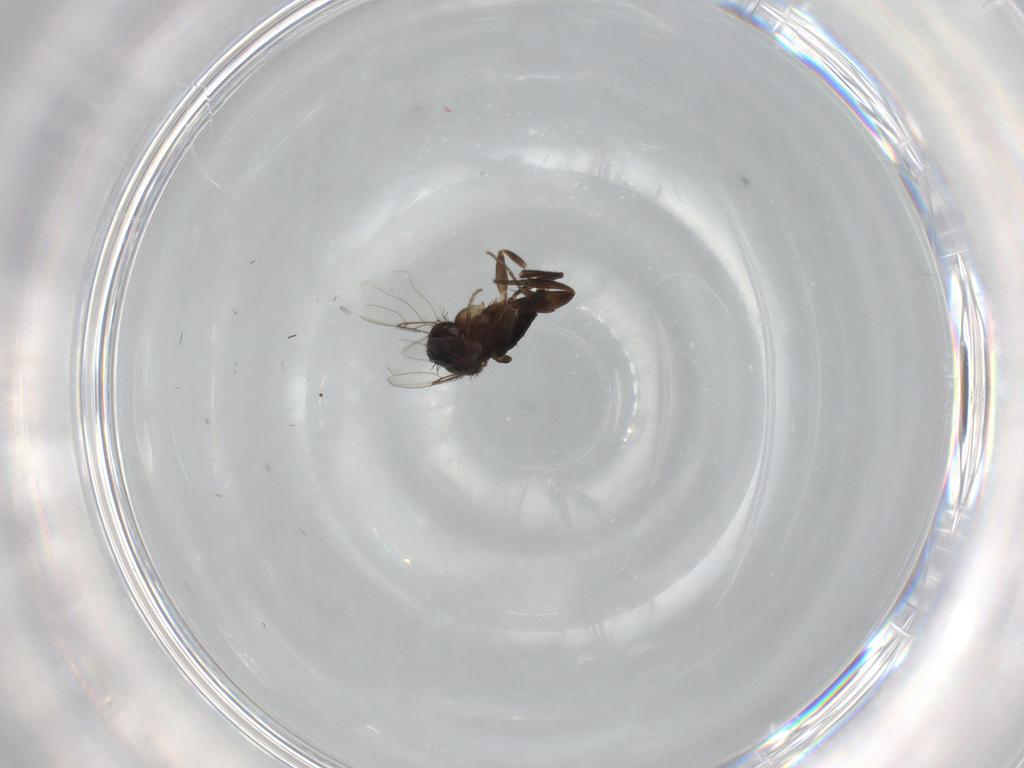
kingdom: Animalia
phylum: Arthropoda
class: Insecta
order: Diptera
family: Phoridae
